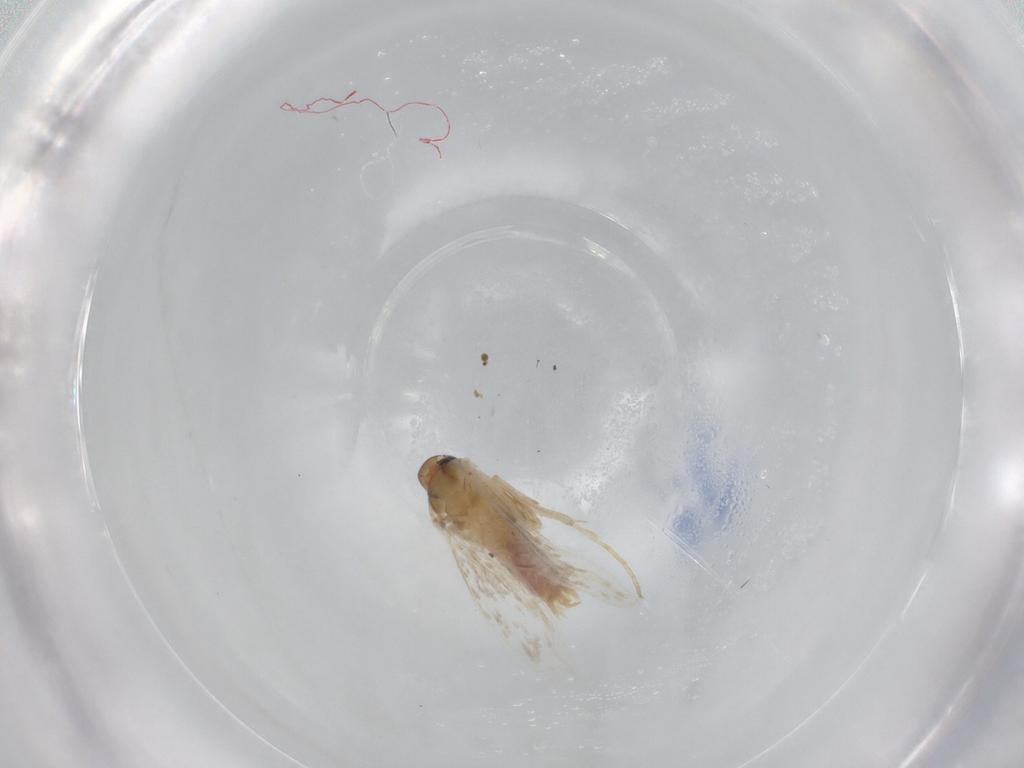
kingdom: Animalia
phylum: Arthropoda
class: Insecta
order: Lepidoptera
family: Cosmopterigidae
